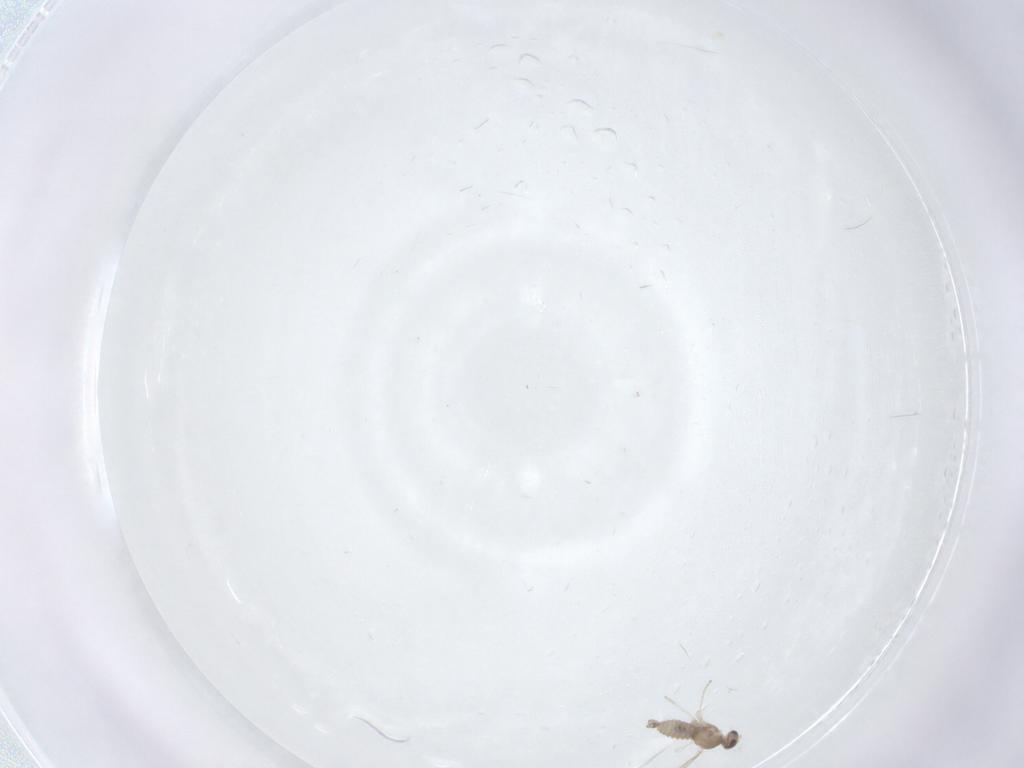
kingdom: Animalia
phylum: Arthropoda
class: Insecta
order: Diptera
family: Cecidomyiidae
